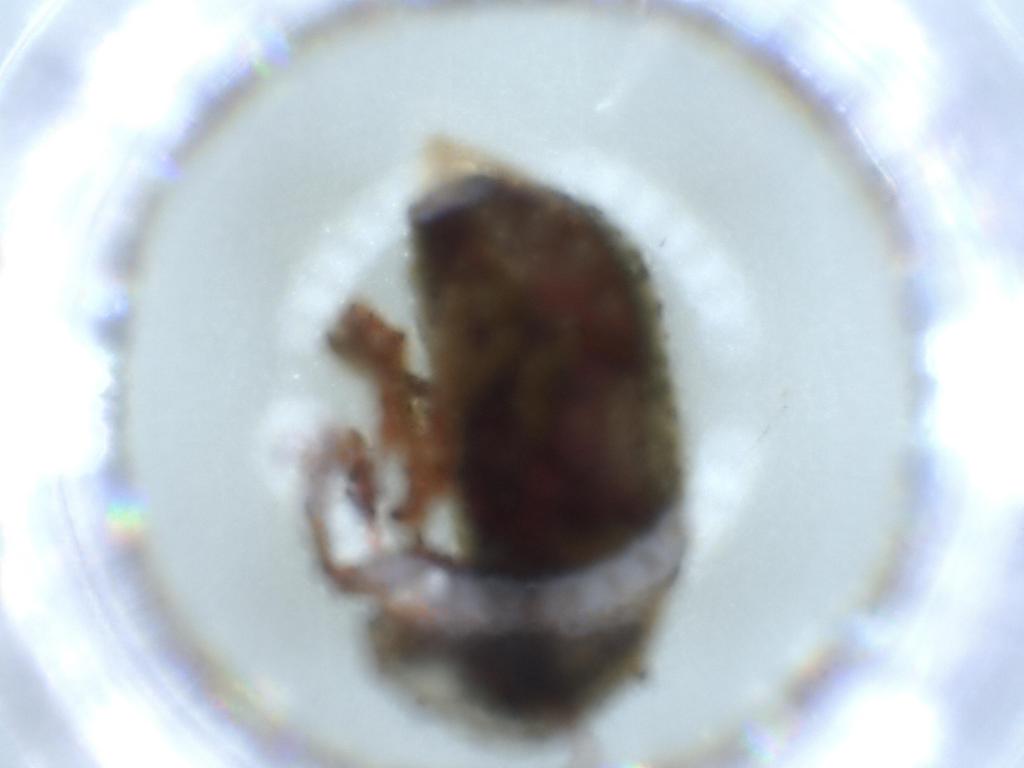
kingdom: Animalia
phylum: Arthropoda
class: Insecta
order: Coleoptera
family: Anthribidae
